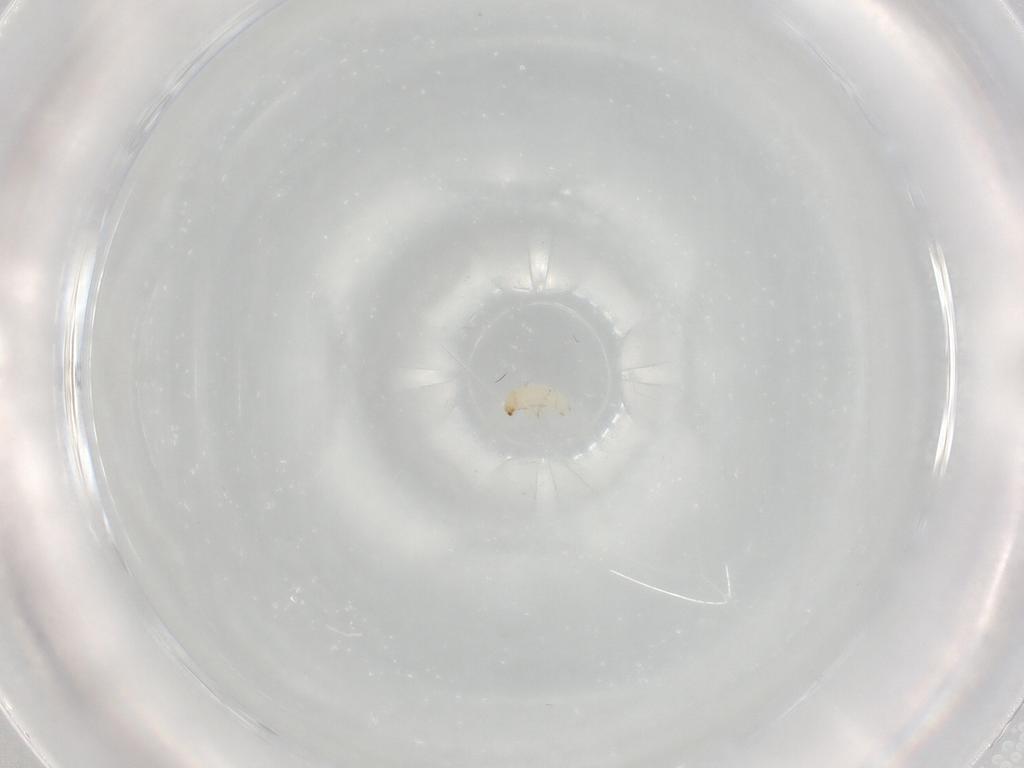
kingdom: Animalia
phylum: Arthropoda
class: Insecta
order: Coleoptera
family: Chrysomelidae
